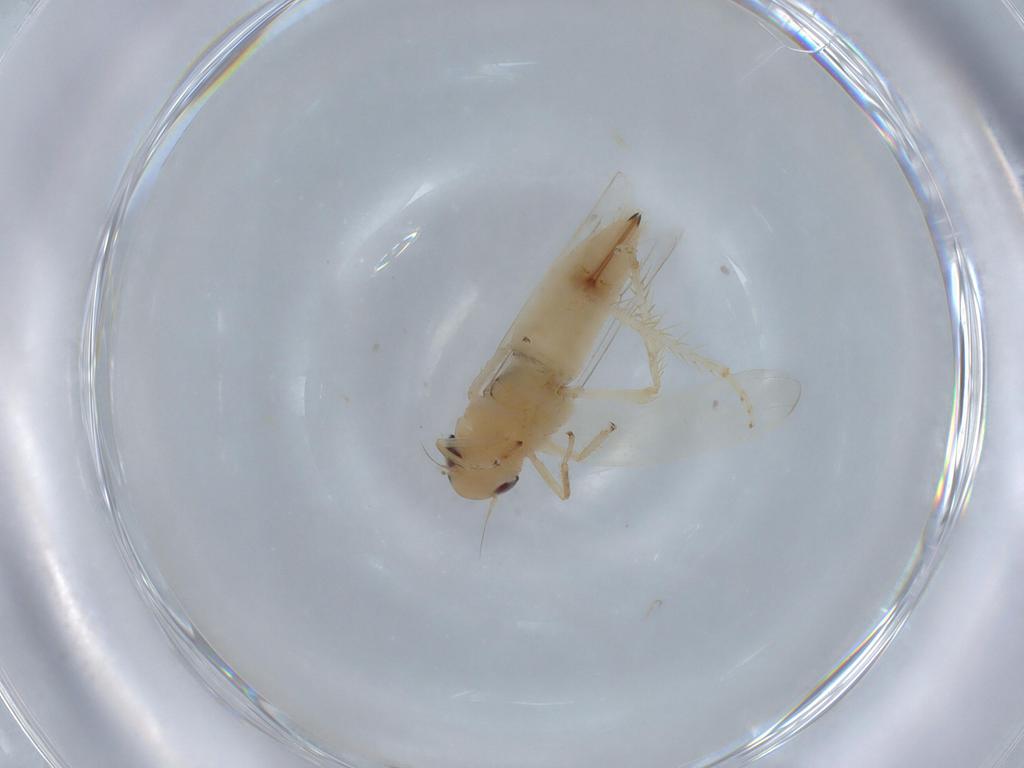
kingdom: Animalia
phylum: Arthropoda
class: Insecta
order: Hemiptera
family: Cicadellidae
